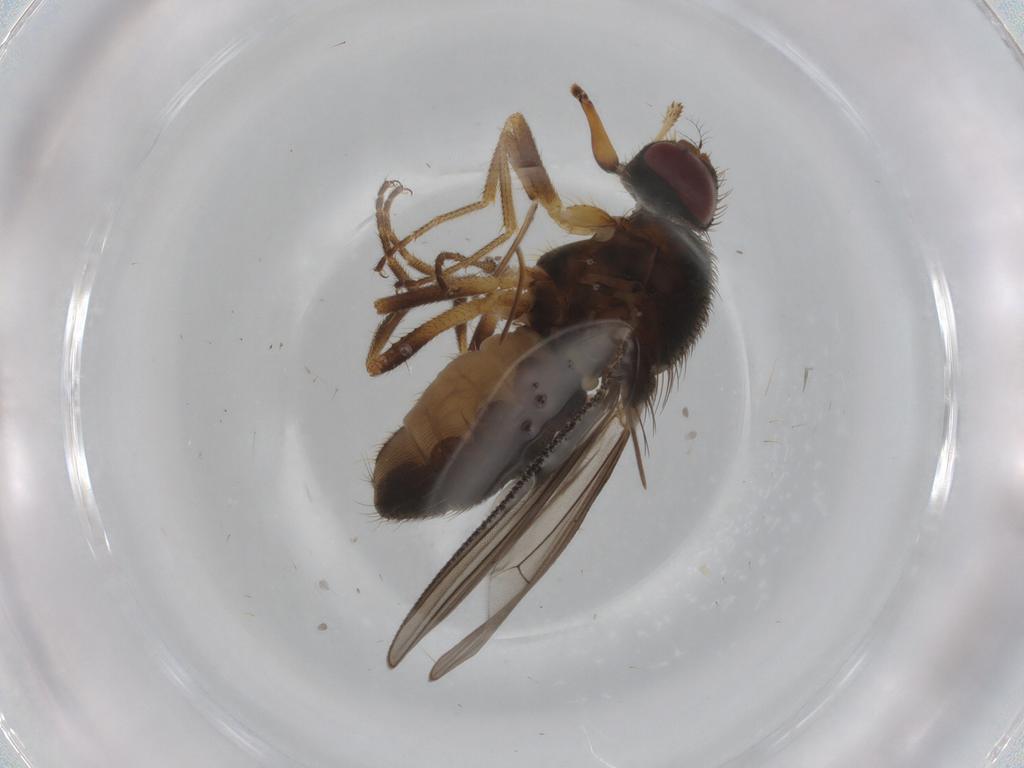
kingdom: Animalia
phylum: Arthropoda
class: Insecta
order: Diptera
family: Muscidae
